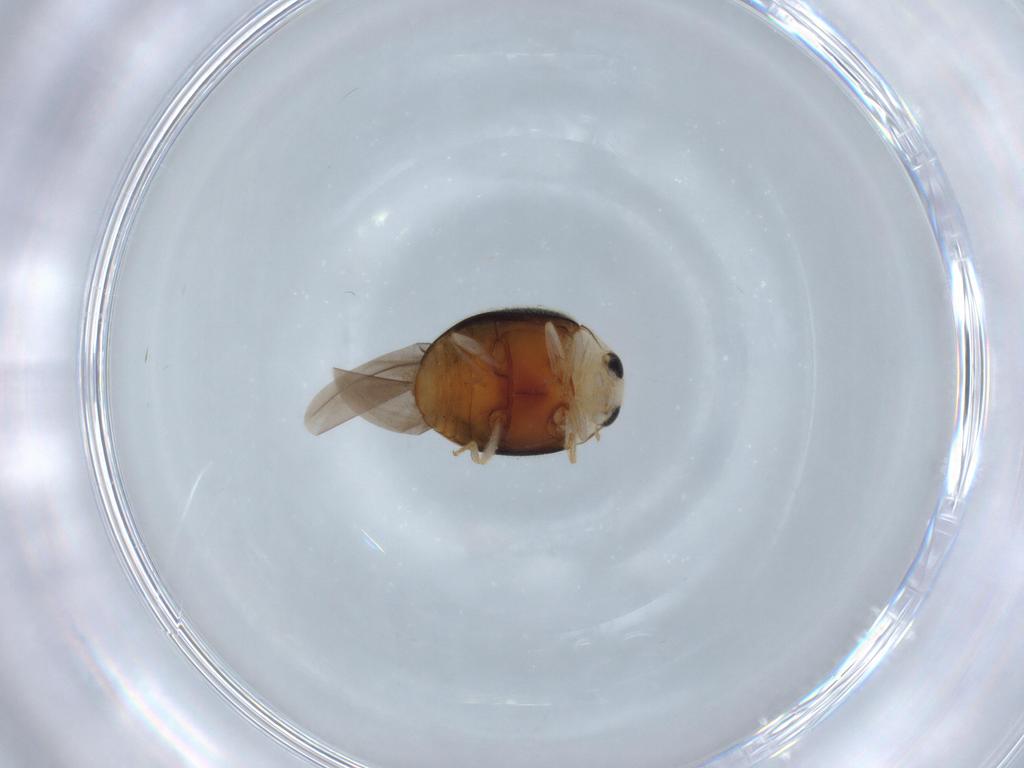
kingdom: Animalia
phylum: Arthropoda
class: Insecta
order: Coleoptera
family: Coccinellidae
